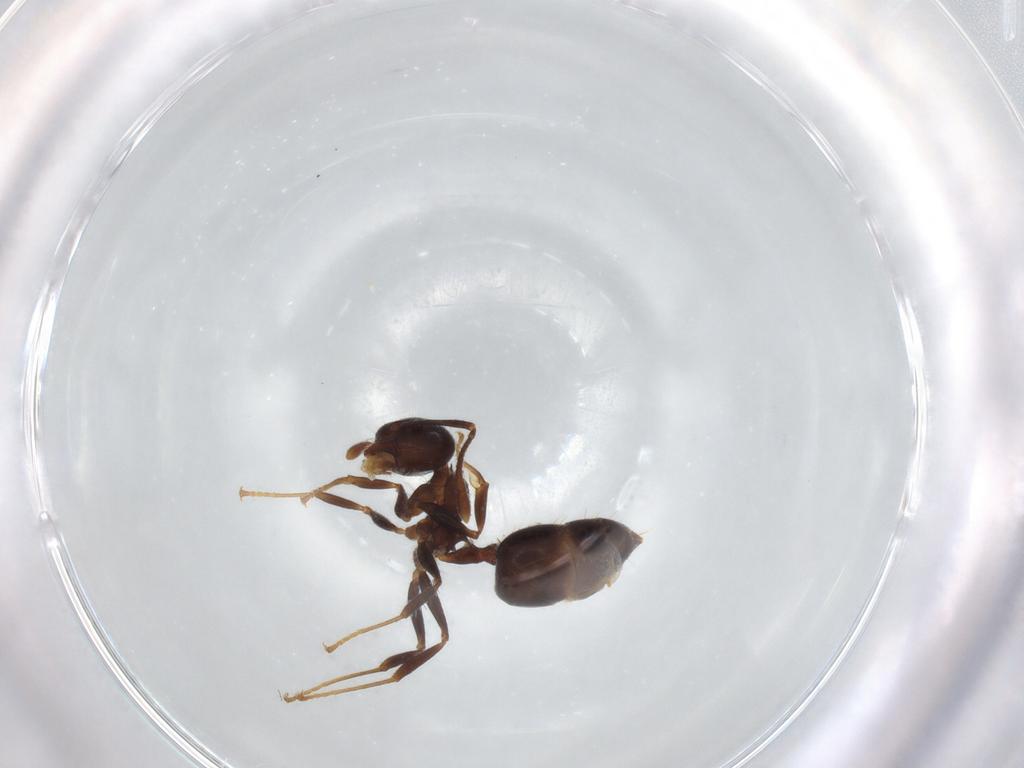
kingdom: Animalia
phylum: Arthropoda
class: Insecta
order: Hymenoptera
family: Formicidae
